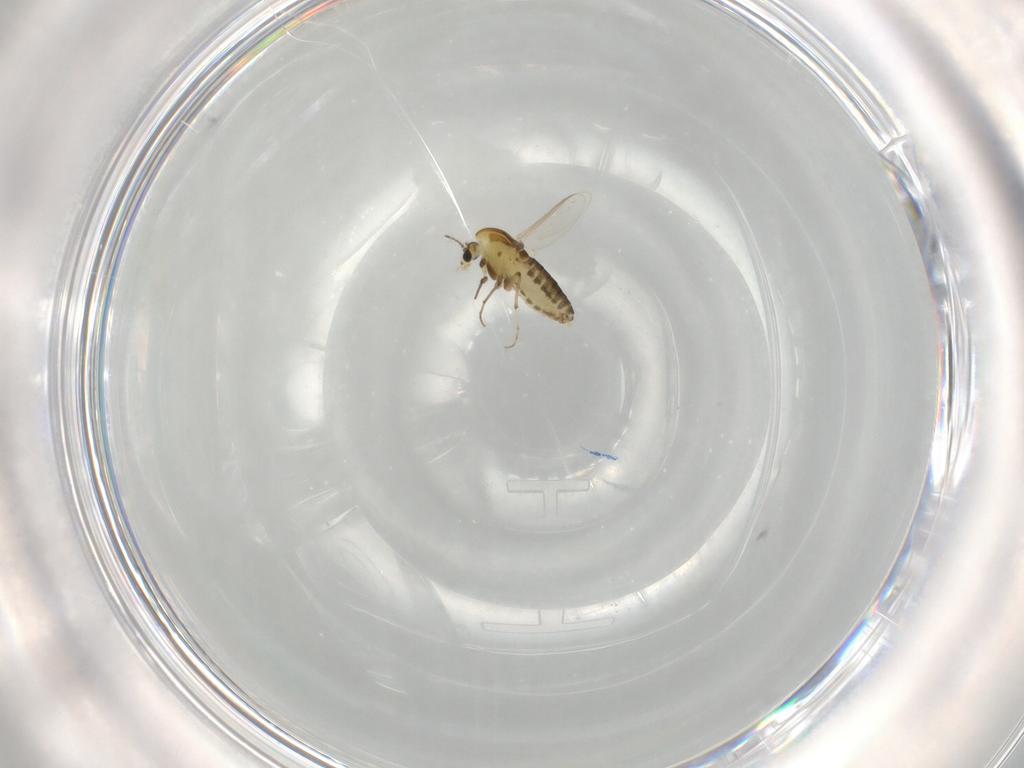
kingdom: Animalia
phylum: Arthropoda
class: Insecta
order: Diptera
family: Chironomidae
